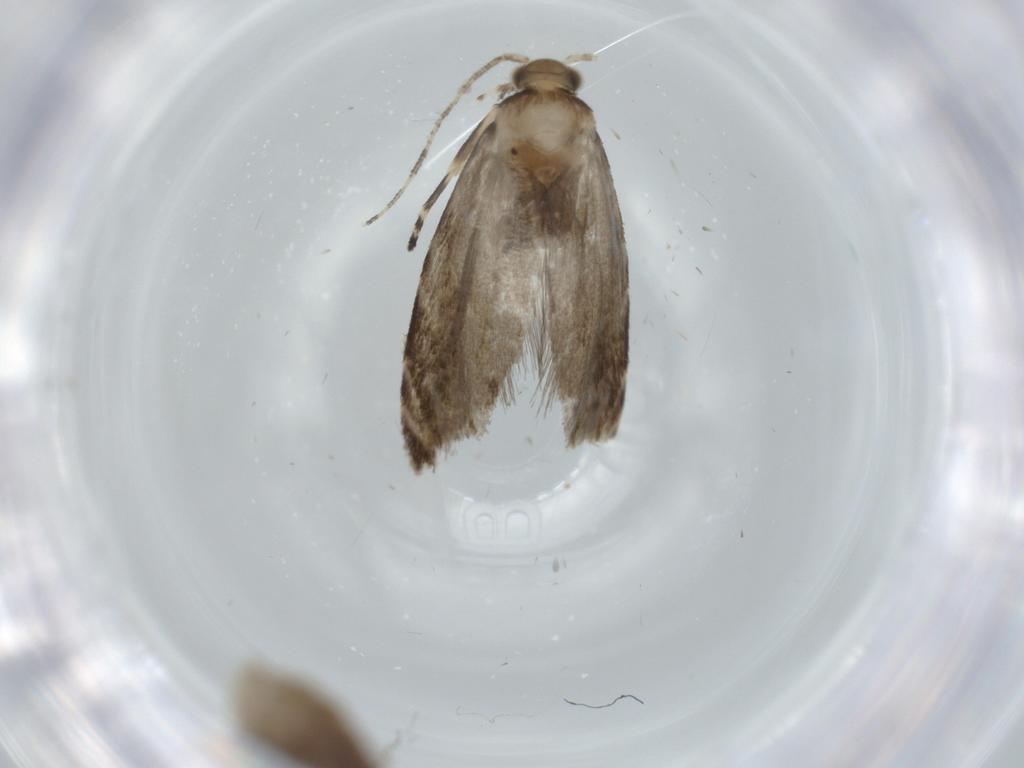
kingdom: Animalia
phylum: Arthropoda
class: Insecta
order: Lepidoptera
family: Tineidae
